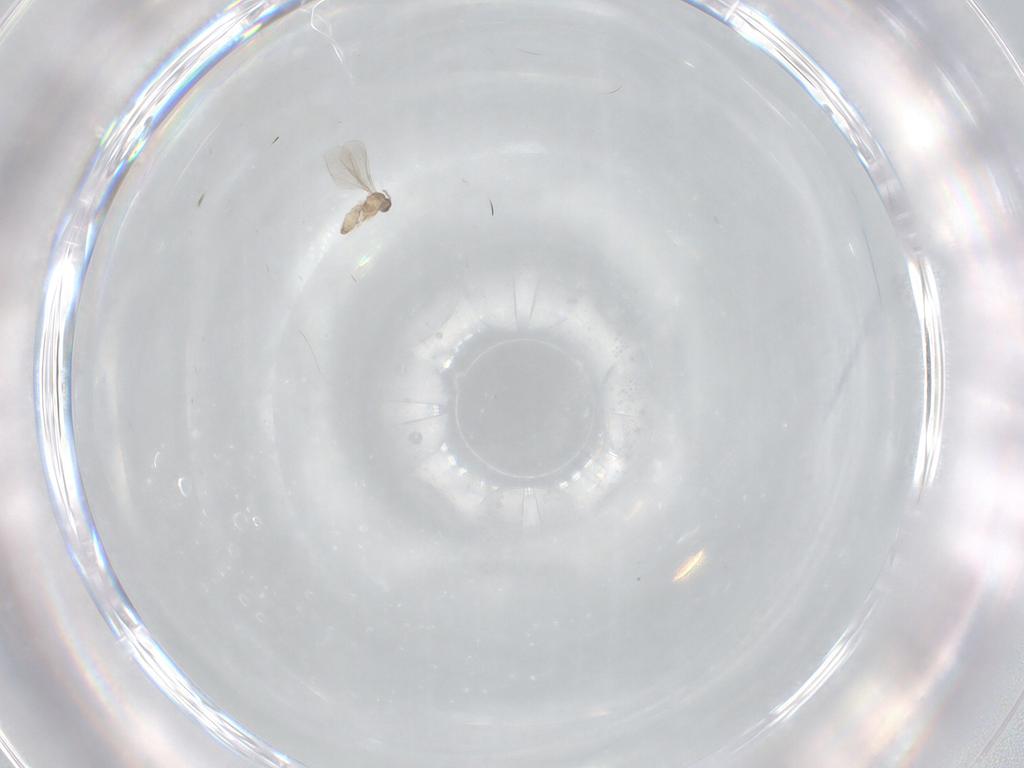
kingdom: Animalia
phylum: Arthropoda
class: Insecta
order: Diptera
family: Cecidomyiidae
